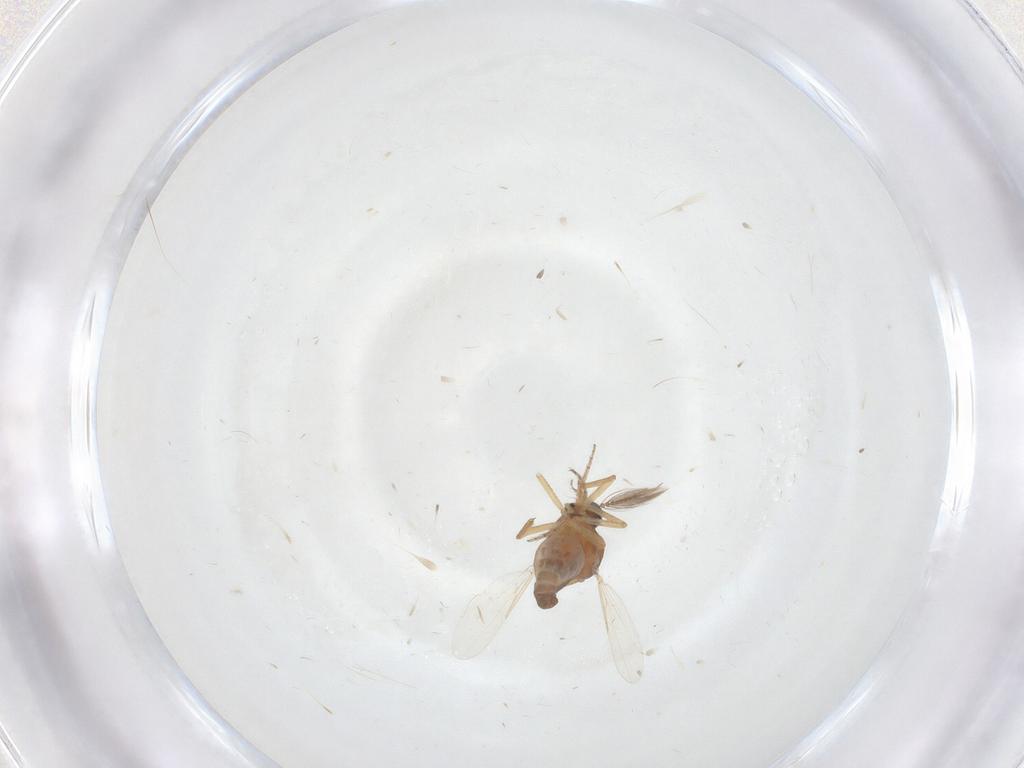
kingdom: Animalia
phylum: Arthropoda
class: Insecta
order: Diptera
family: Ceratopogonidae
